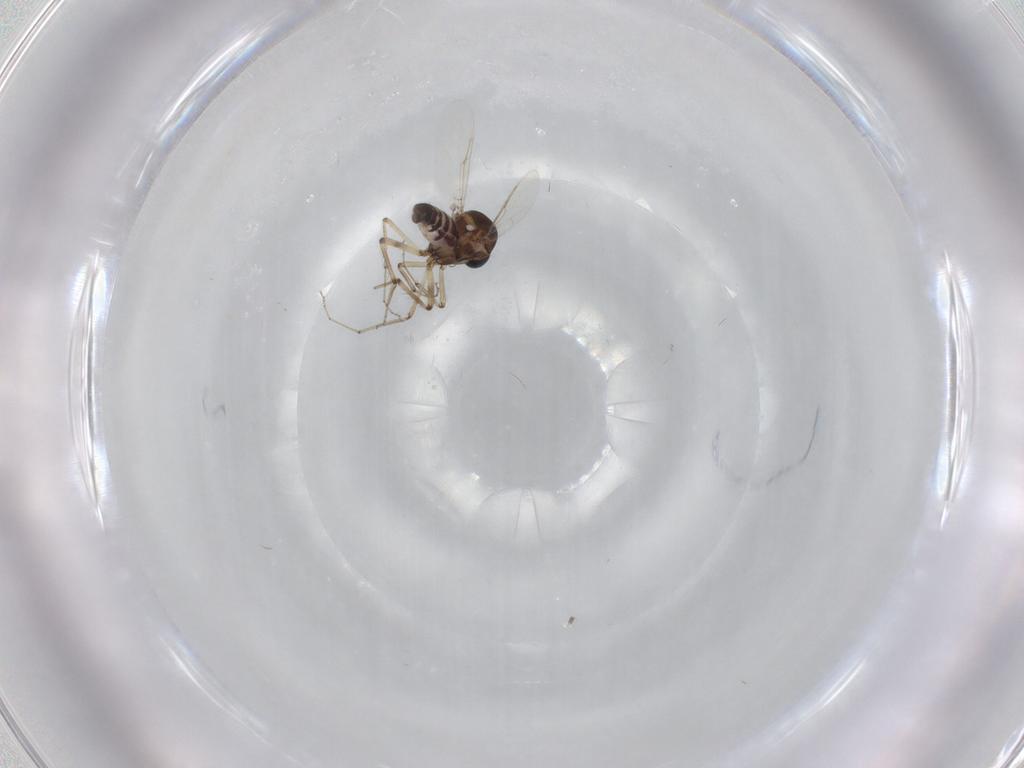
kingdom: Animalia
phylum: Arthropoda
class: Insecta
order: Diptera
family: Ceratopogonidae
